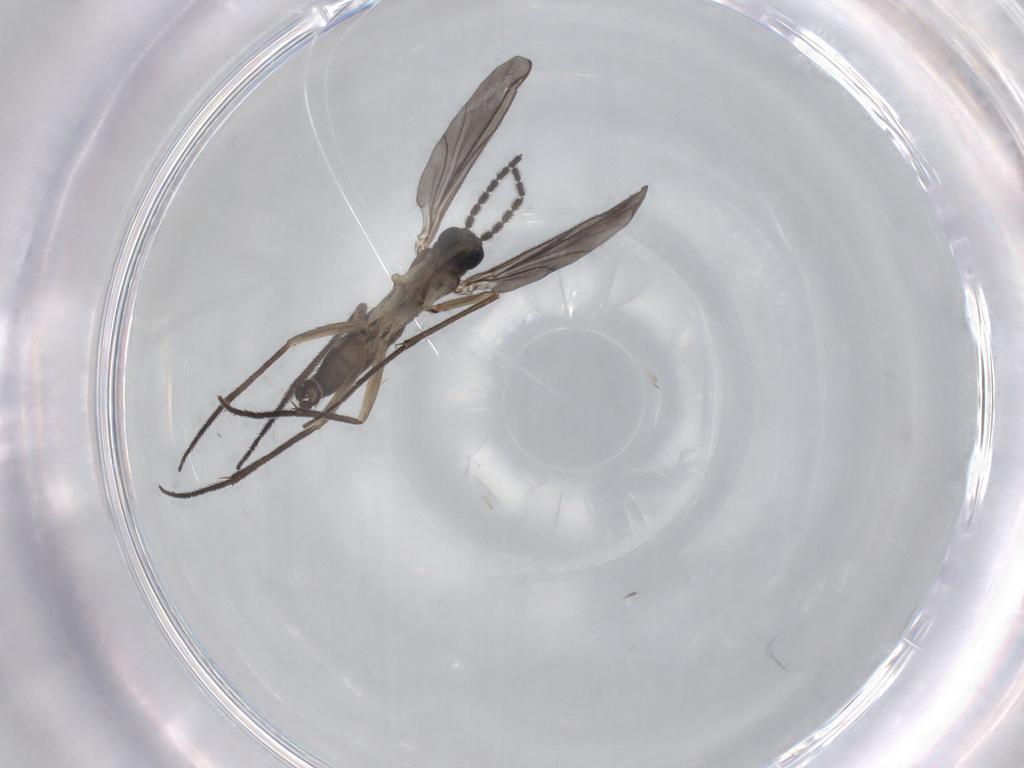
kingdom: Animalia
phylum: Arthropoda
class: Insecta
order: Diptera
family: Sciaridae
